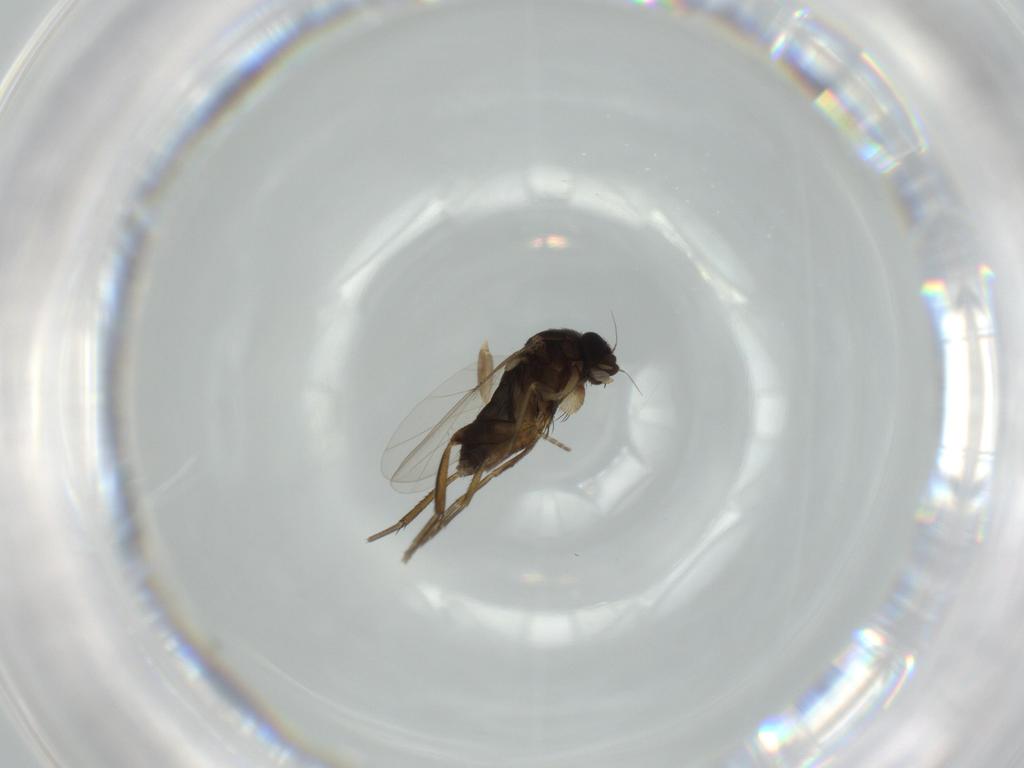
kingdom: Animalia
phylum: Arthropoda
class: Insecta
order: Diptera
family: Phoridae
